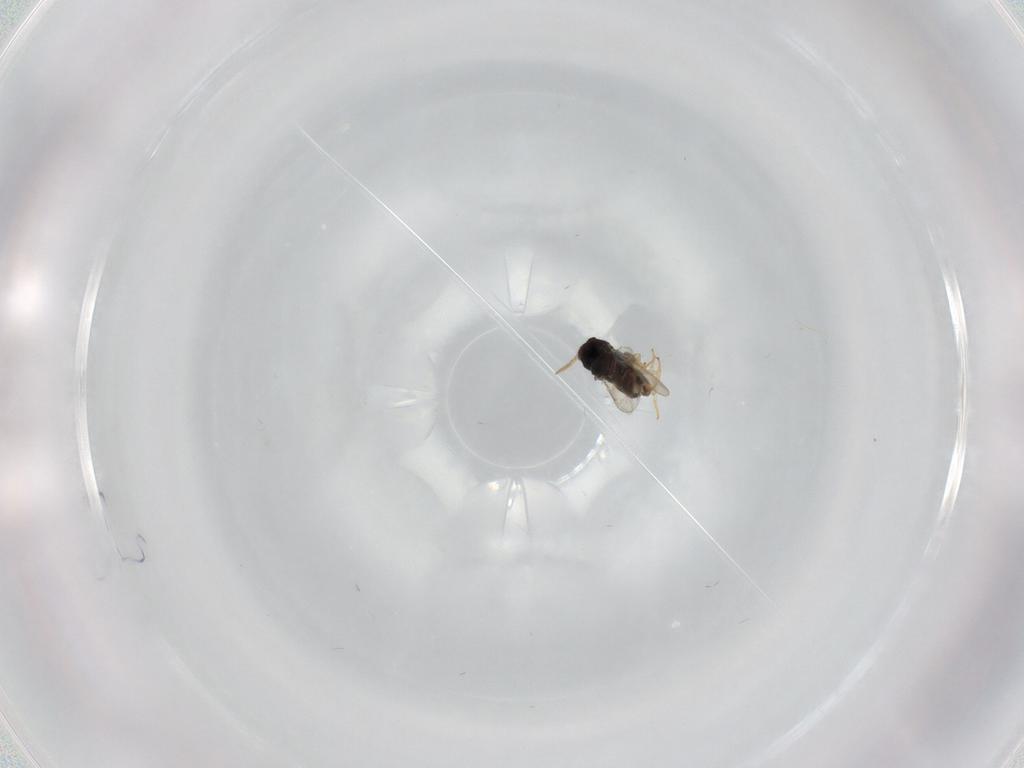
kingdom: Animalia
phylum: Arthropoda
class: Insecta
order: Hymenoptera
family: Aphelinidae
